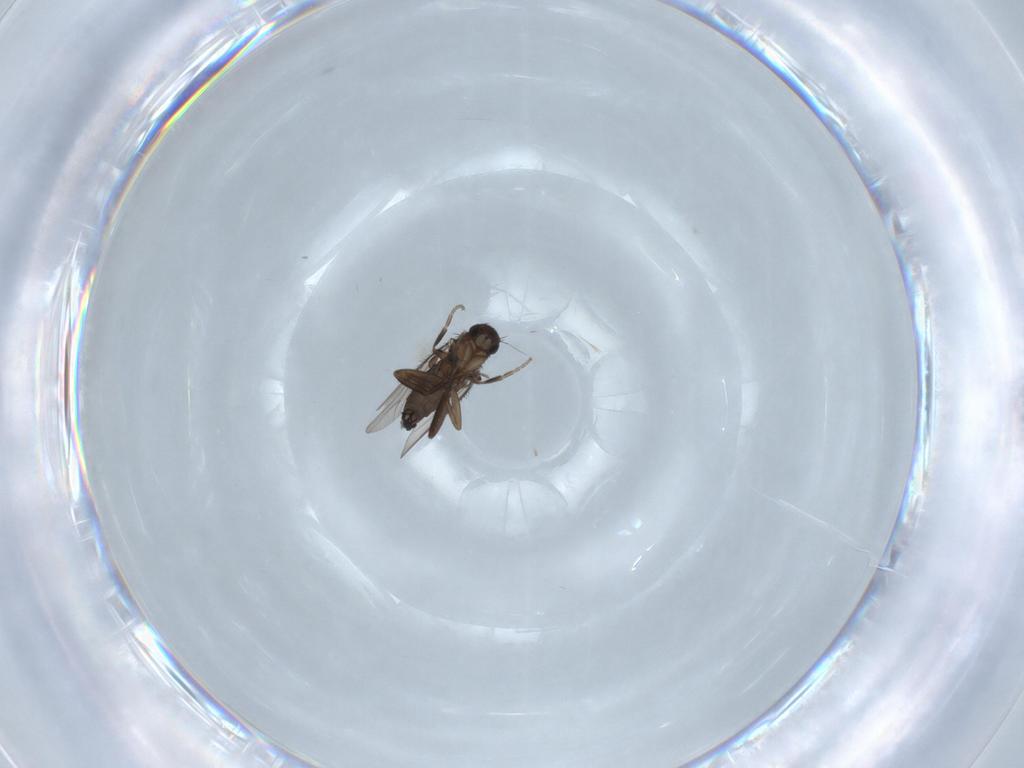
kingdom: Animalia
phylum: Arthropoda
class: Insecta
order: Diptera
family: Phoridae
